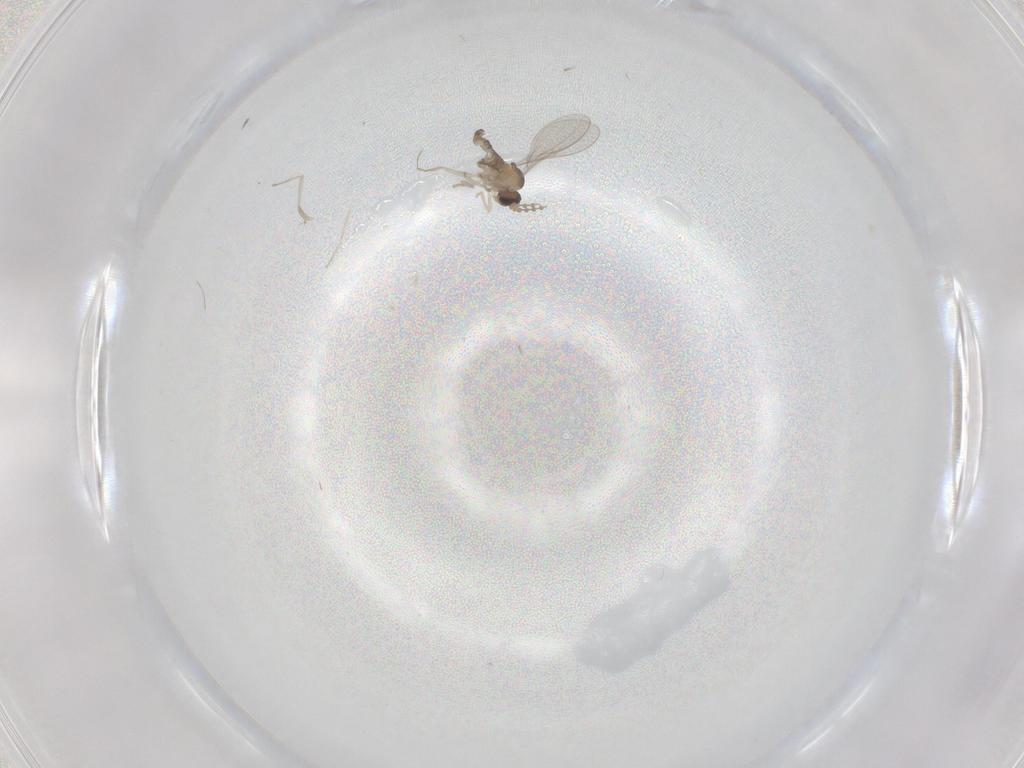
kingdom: Animalia
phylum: Arthropoda
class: Insecta
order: Diptera
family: Cecidomyiidae
